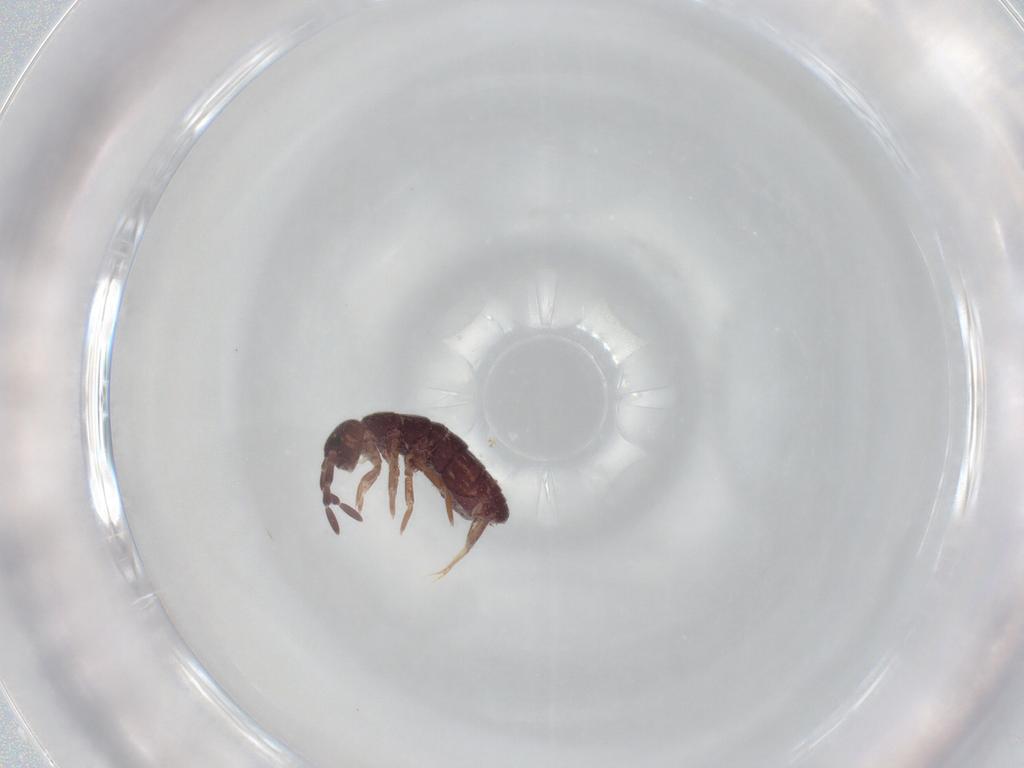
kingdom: Animalia
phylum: Arthropoda
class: Collembola
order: Entomobryomorpha
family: Isotomidae
